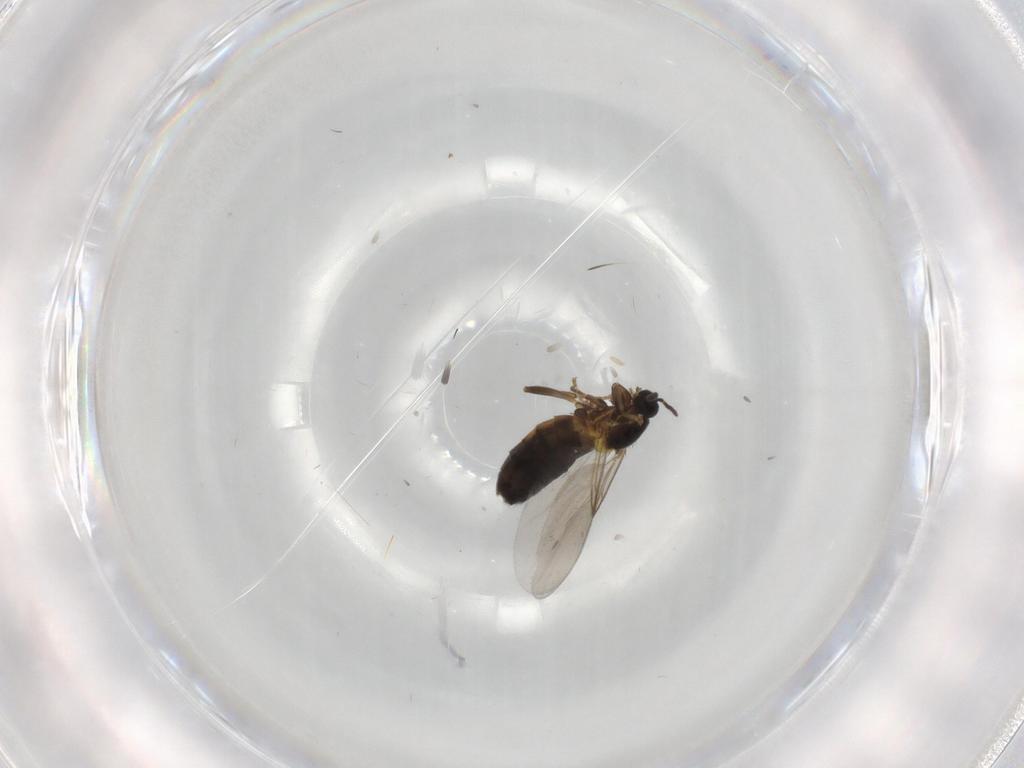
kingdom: Animalia
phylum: Arthropoda
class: Insecta
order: Diptera
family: Scatopsidae
